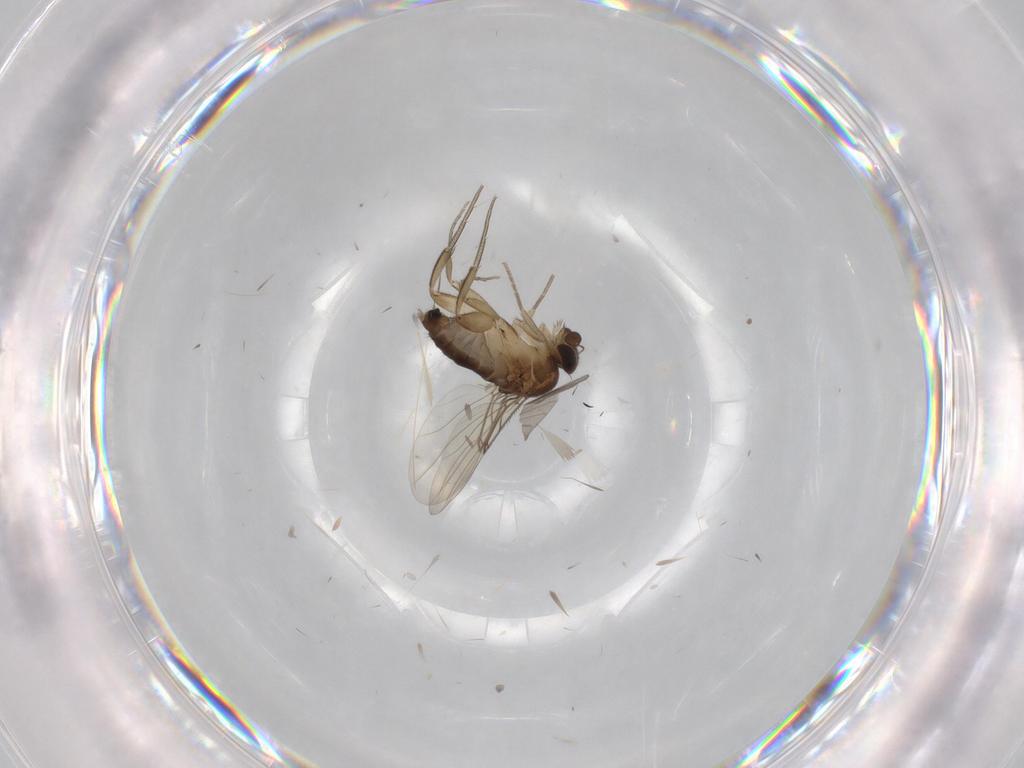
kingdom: Animalia
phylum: Arthropoda
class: Insecta
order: Diptera
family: Phoridae
